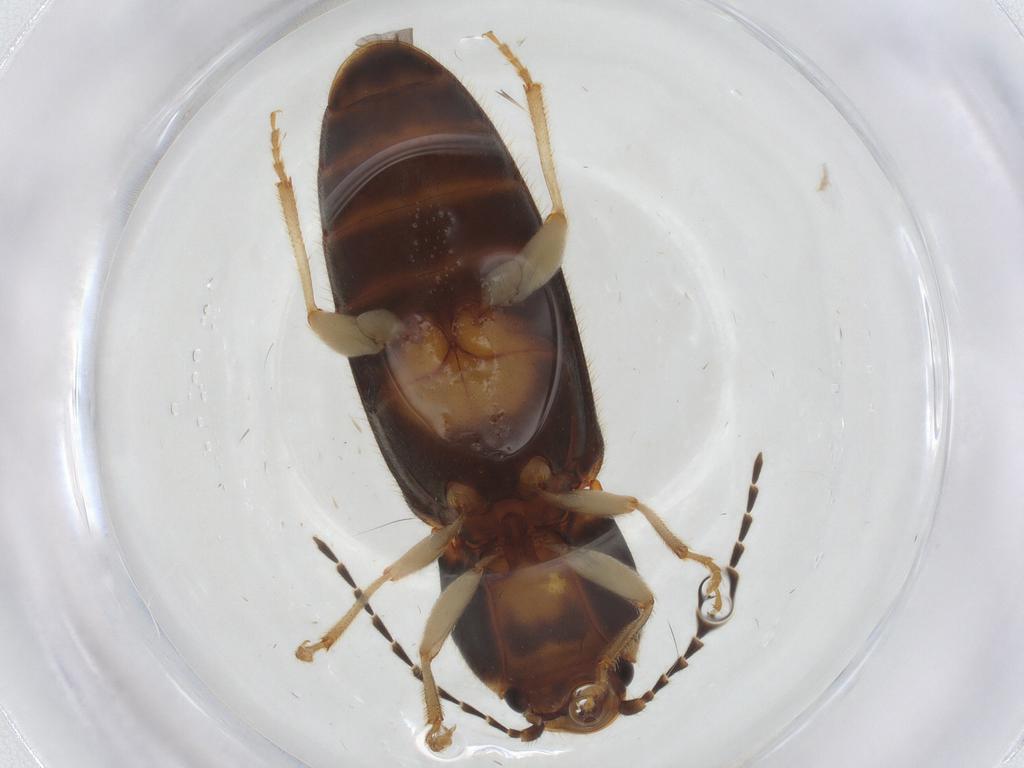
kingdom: Animalia
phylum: Arthropoda
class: Insecta
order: Coleoptera
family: Elateridae
